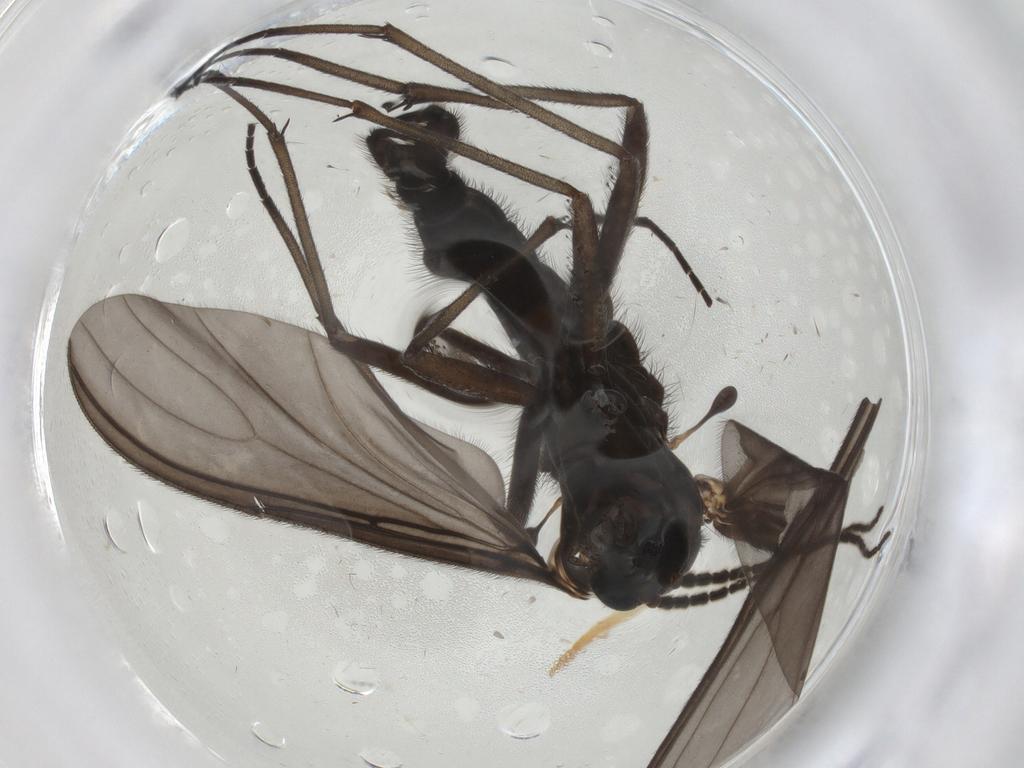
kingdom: Animalia
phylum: Arthropoda
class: Insecta
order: Diptera
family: Sciaridae
